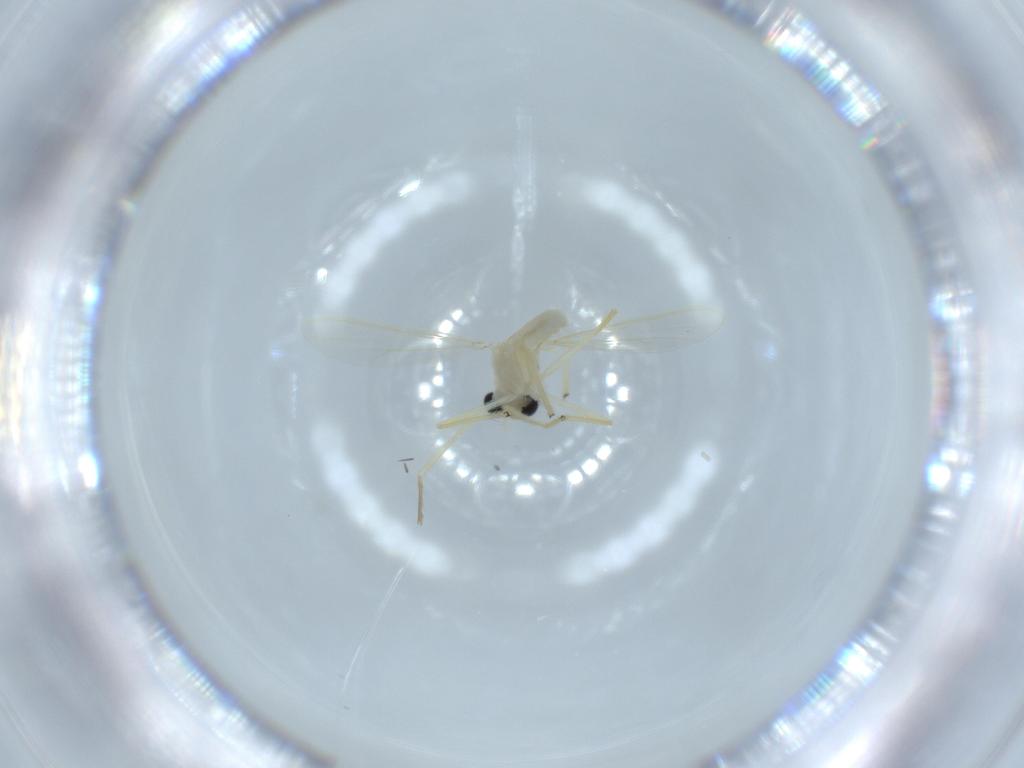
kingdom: Animalia
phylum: Arthropoda
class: Insecta
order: Diptera
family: Chironomidae
